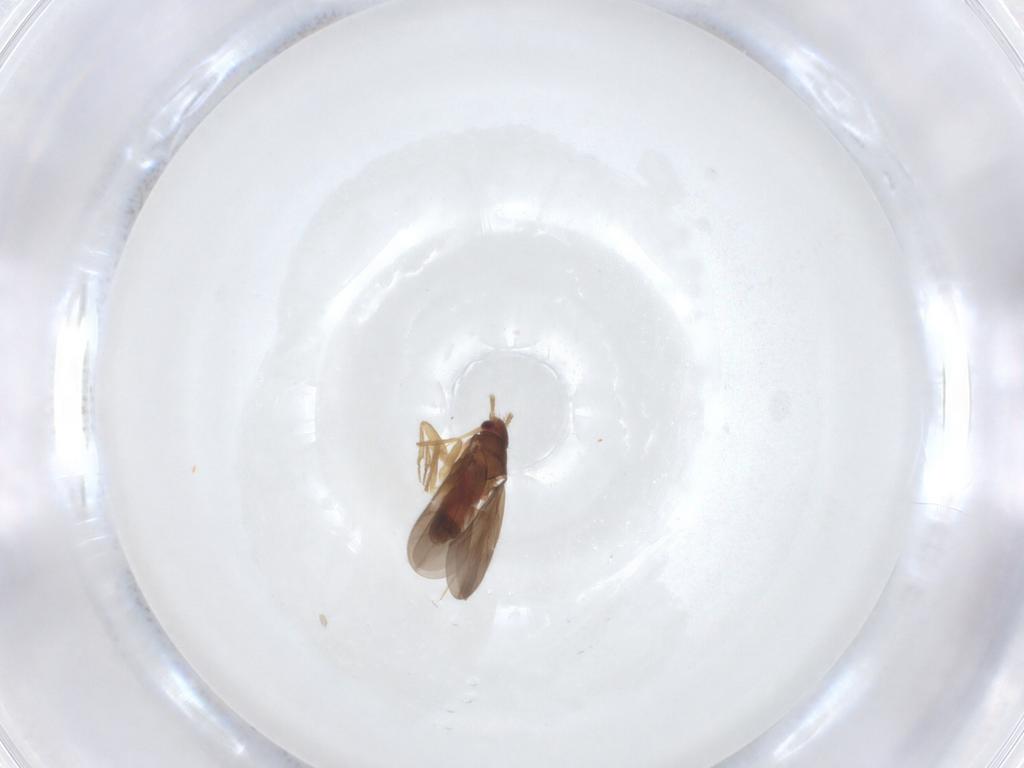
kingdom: Animalia
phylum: Arthropoda
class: Insecta
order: Hemiptera
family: Ceratocombidae
